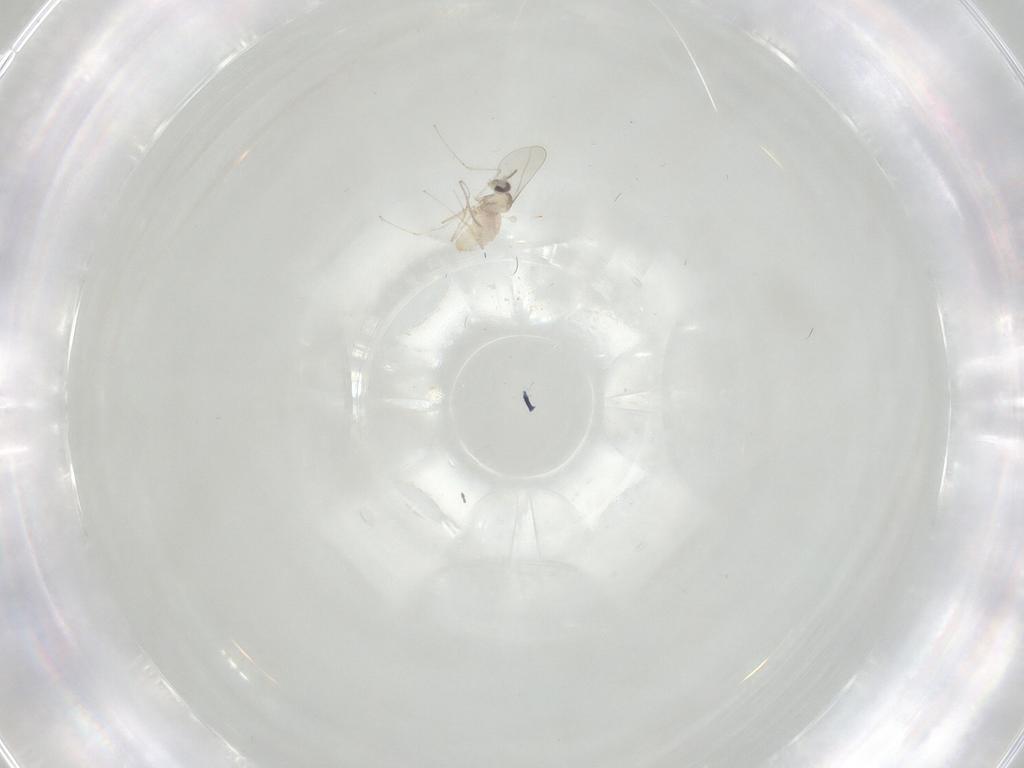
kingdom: Animalia
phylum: Arthropoda
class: Insecta
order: Diptera
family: Cecidomyiidae
